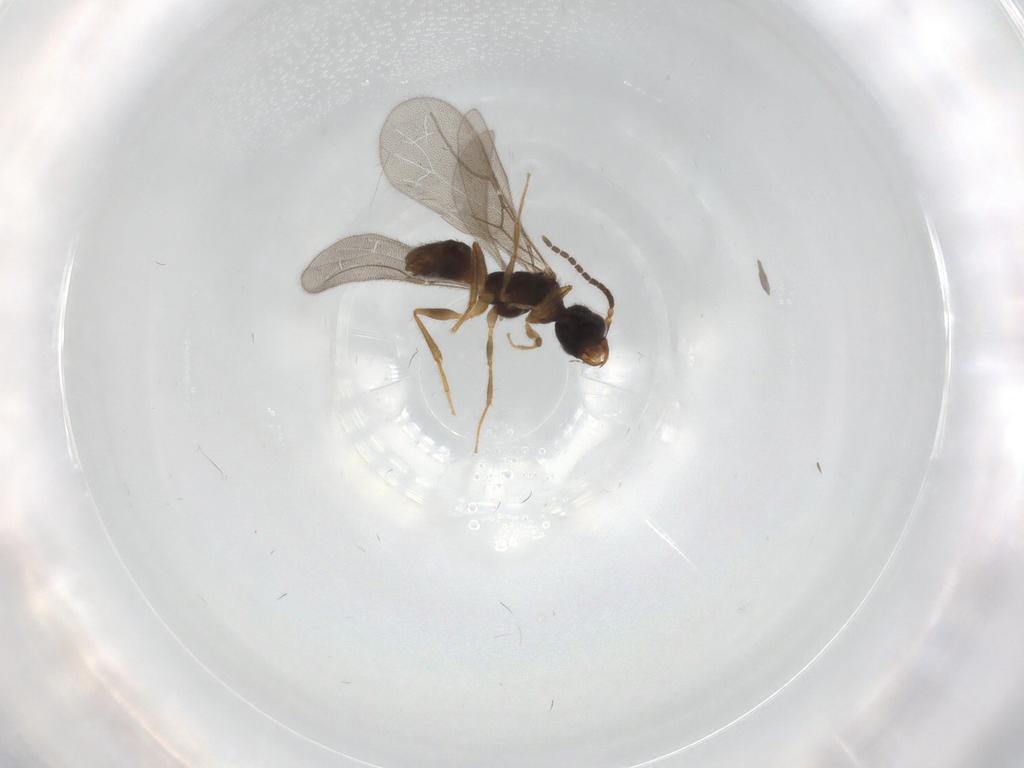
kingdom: Animalia
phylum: Arthropoda
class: Insecta
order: Hymenoptera
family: Bethylidae
